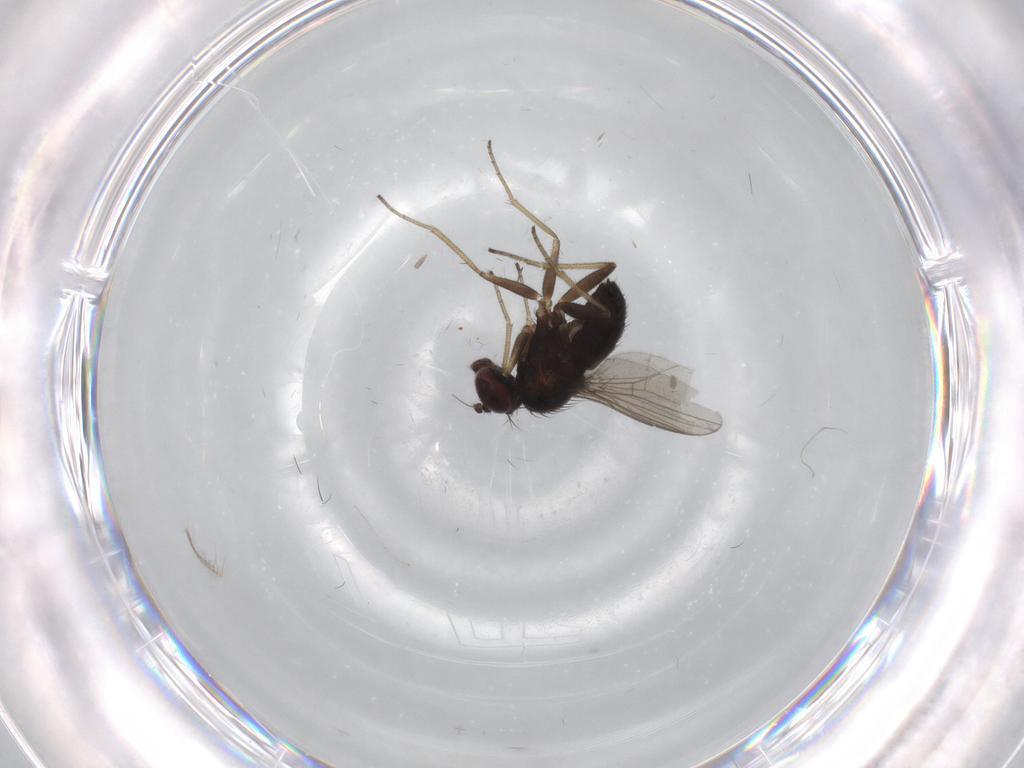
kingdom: Animalia
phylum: Arthropoda
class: Insecta
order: Diptera
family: Dolichopodidae
